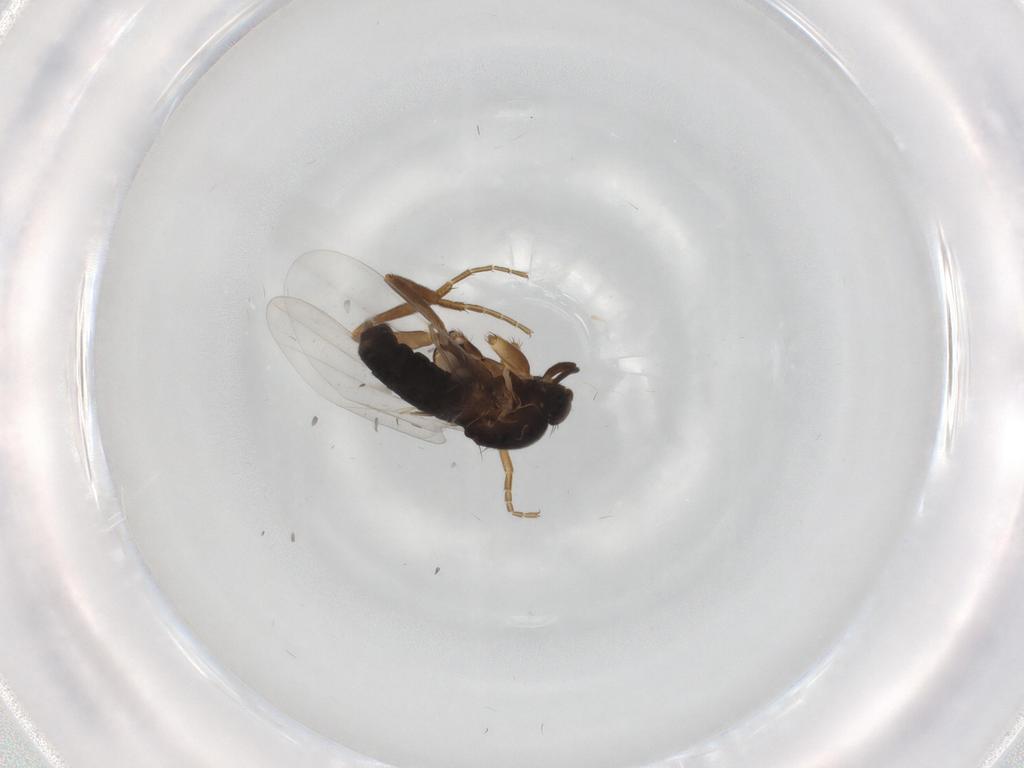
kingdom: Animalia
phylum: Arthropoda
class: Insecta
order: Diptera
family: Phoridae
